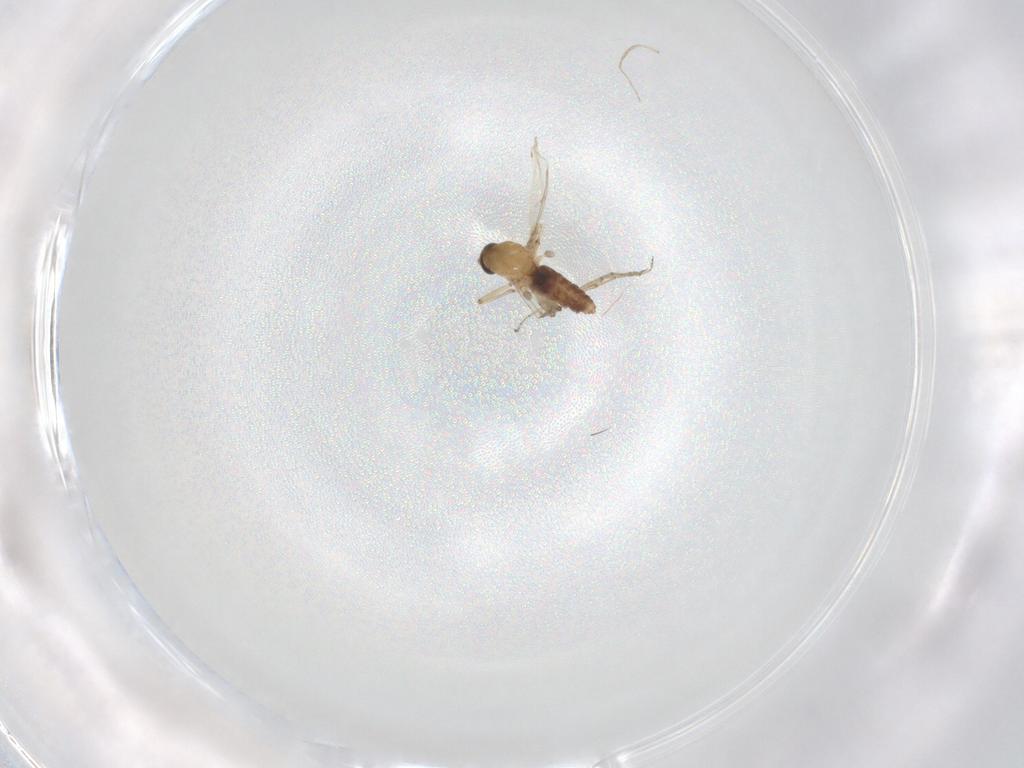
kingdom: Animalia
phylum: Arthropoda
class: Insecta
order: Diptera
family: Chironomidae
